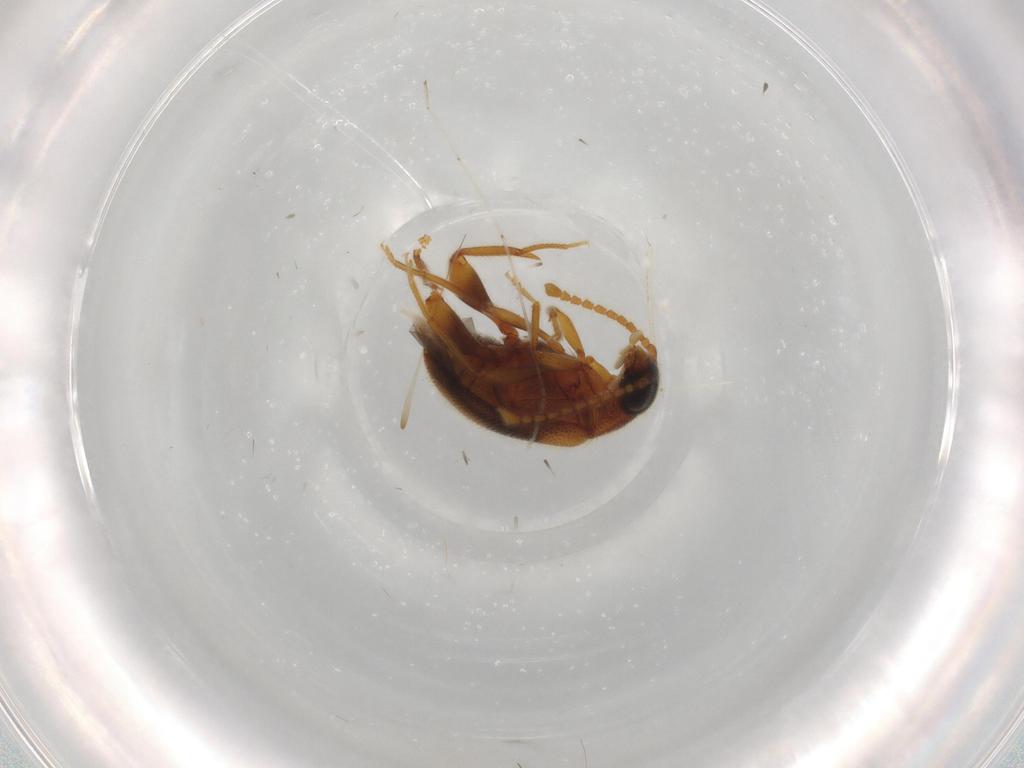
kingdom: Animalia
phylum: Arthropoda
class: Insecta
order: Coleoptera
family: Aderidae
